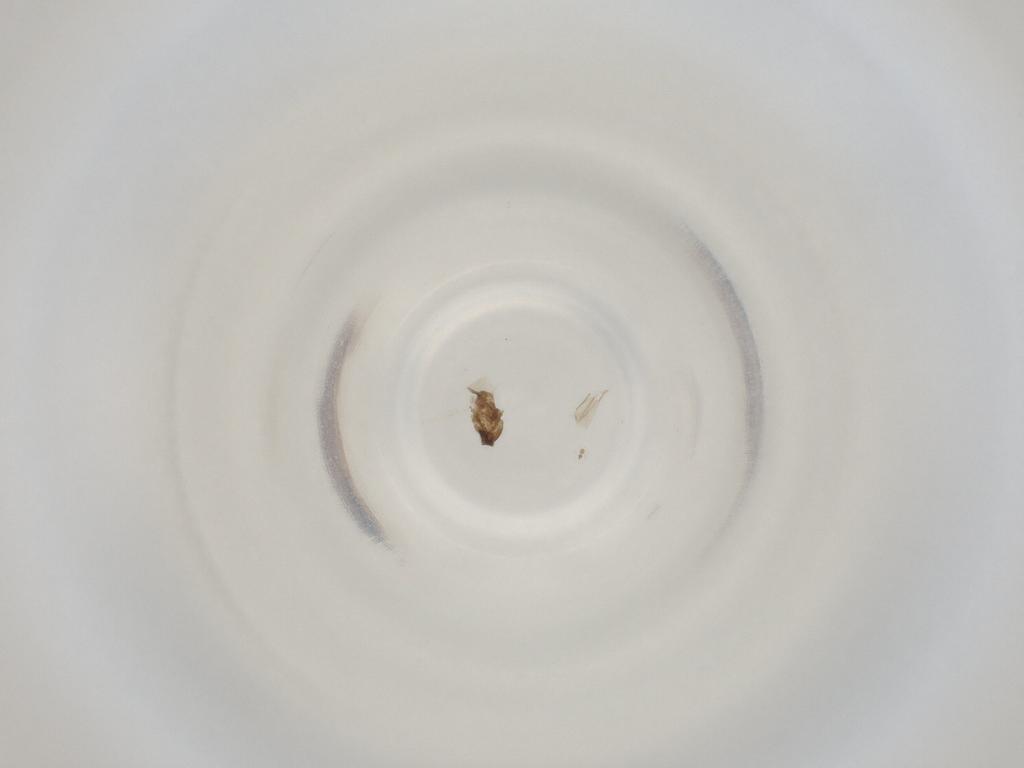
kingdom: Animalia
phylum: Arthropoda
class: Insecta
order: Diptera
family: Cecidomyiidae
